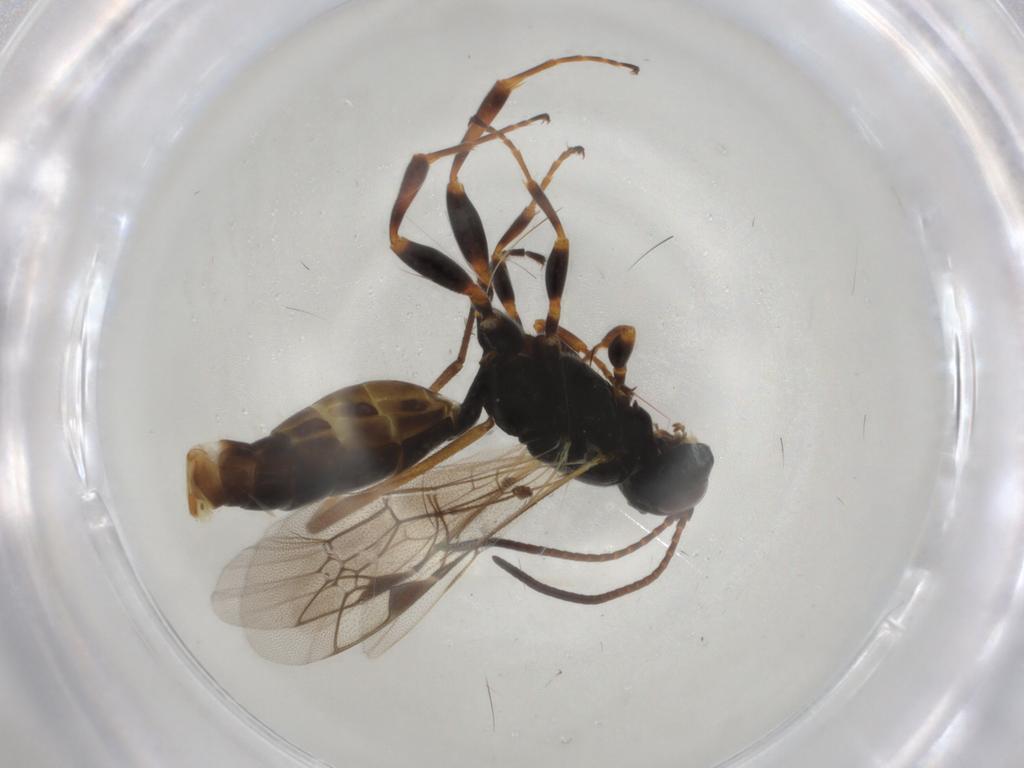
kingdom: Animalia
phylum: Arthropoda
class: Insecta
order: Hymenoptera
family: Ichneumonidae
